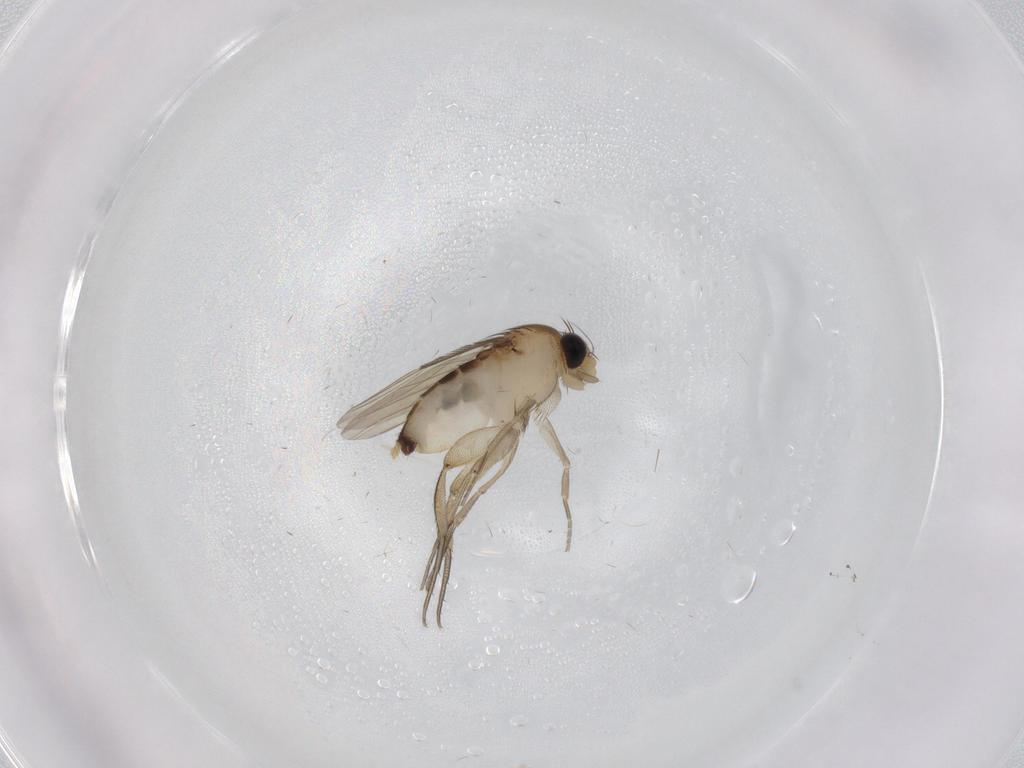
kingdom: Animalia
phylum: Arthropoda
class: Insecta
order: Diptera
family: Phoridae
